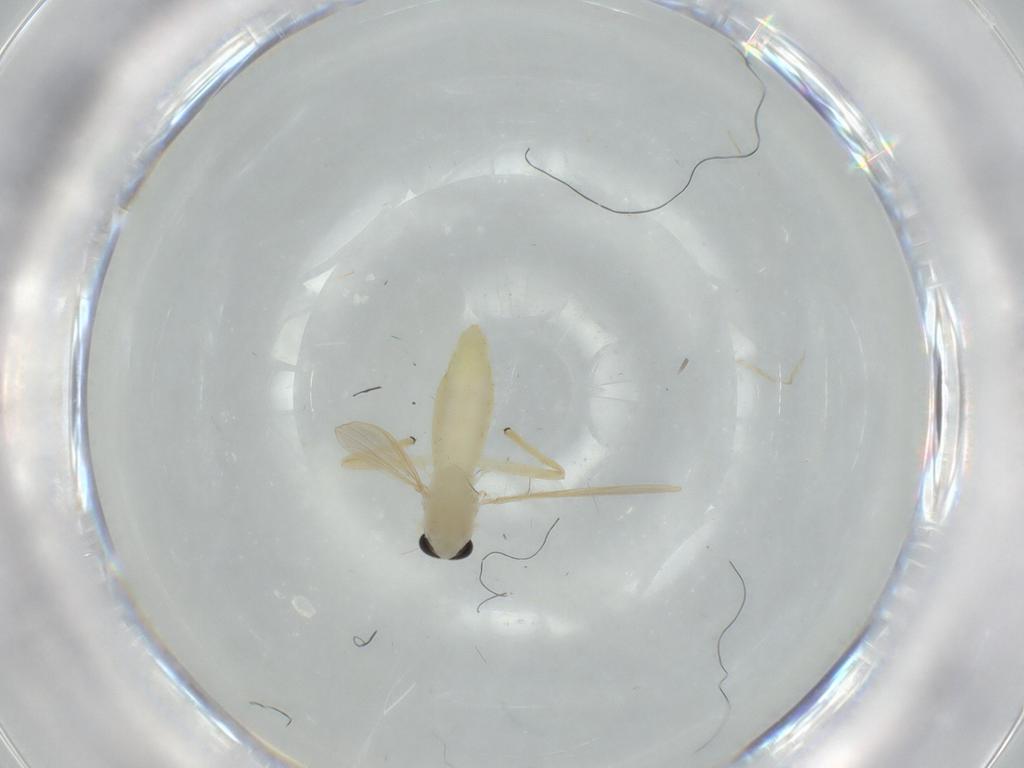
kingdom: Animalia
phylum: Arthropoda
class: Insecta
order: Diptera
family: Chironomidae
